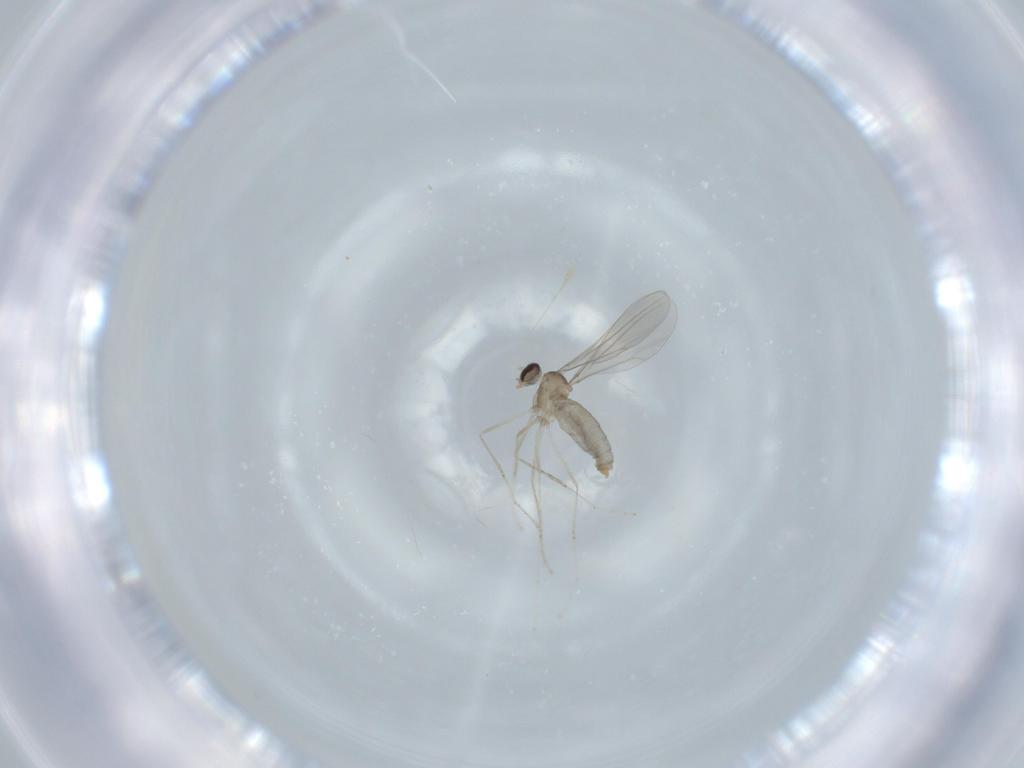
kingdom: Animalia
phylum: Arthropoda
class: Insecta
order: Diptera
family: Cecidomyiidae
